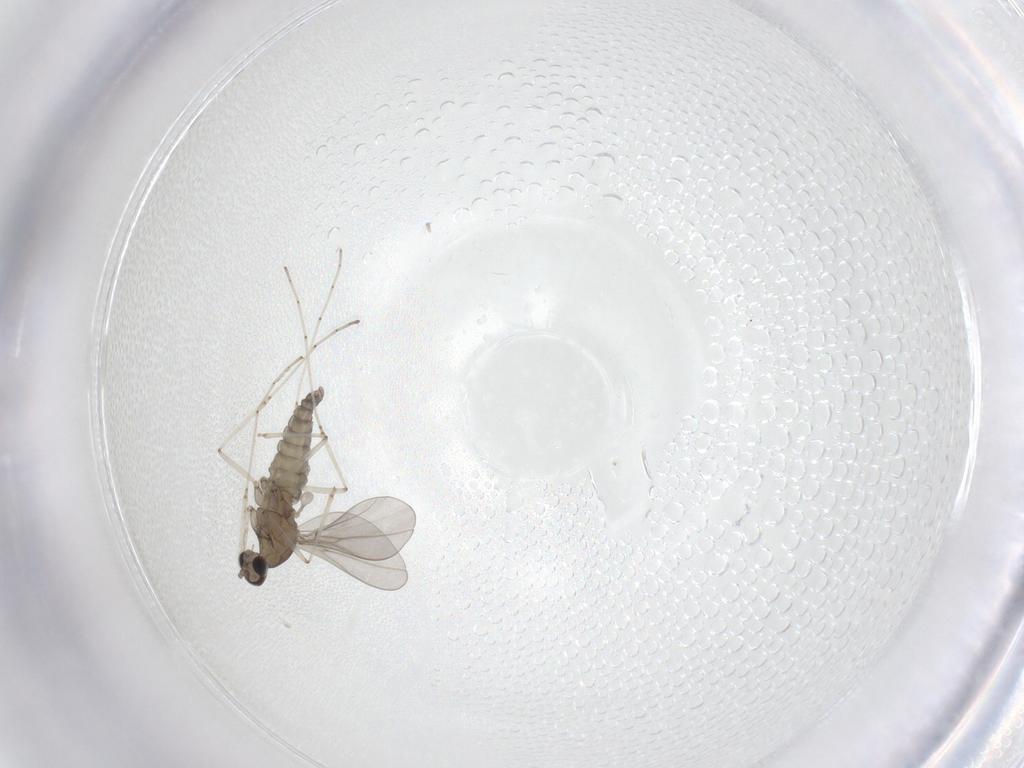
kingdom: Animalia
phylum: Arthropoda
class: Insecta
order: Diptera
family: Cecidomyiidae
